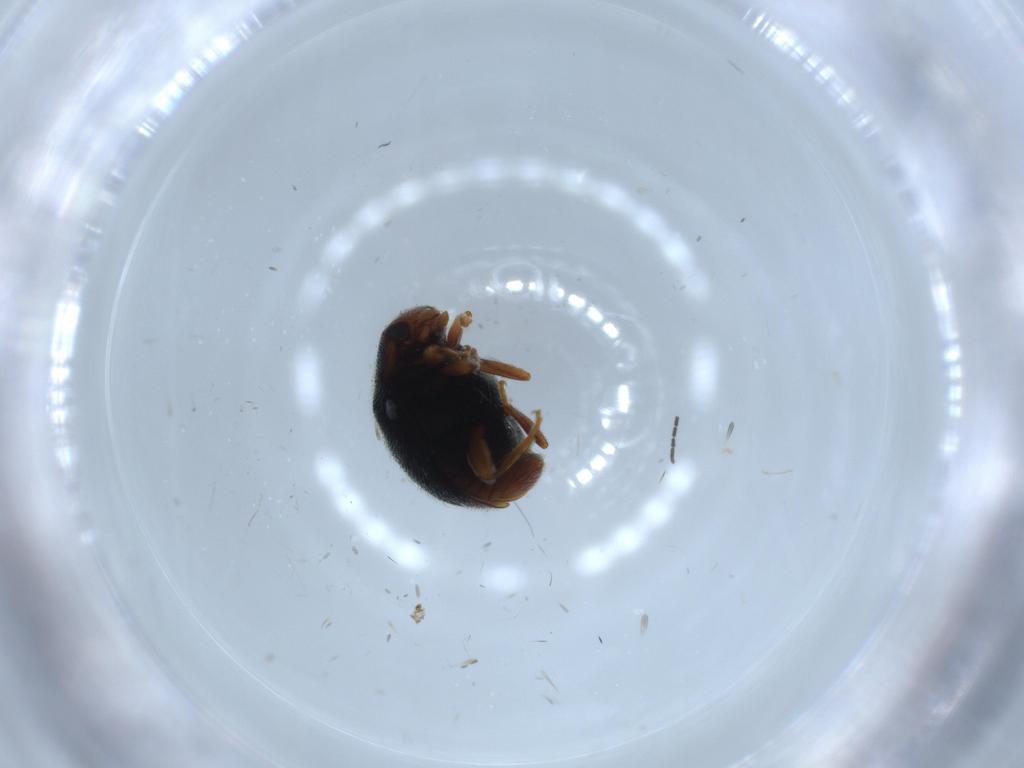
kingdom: Animalia
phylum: Arthropoda
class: Insecta
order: Coleoptera
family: Coccinellidae
